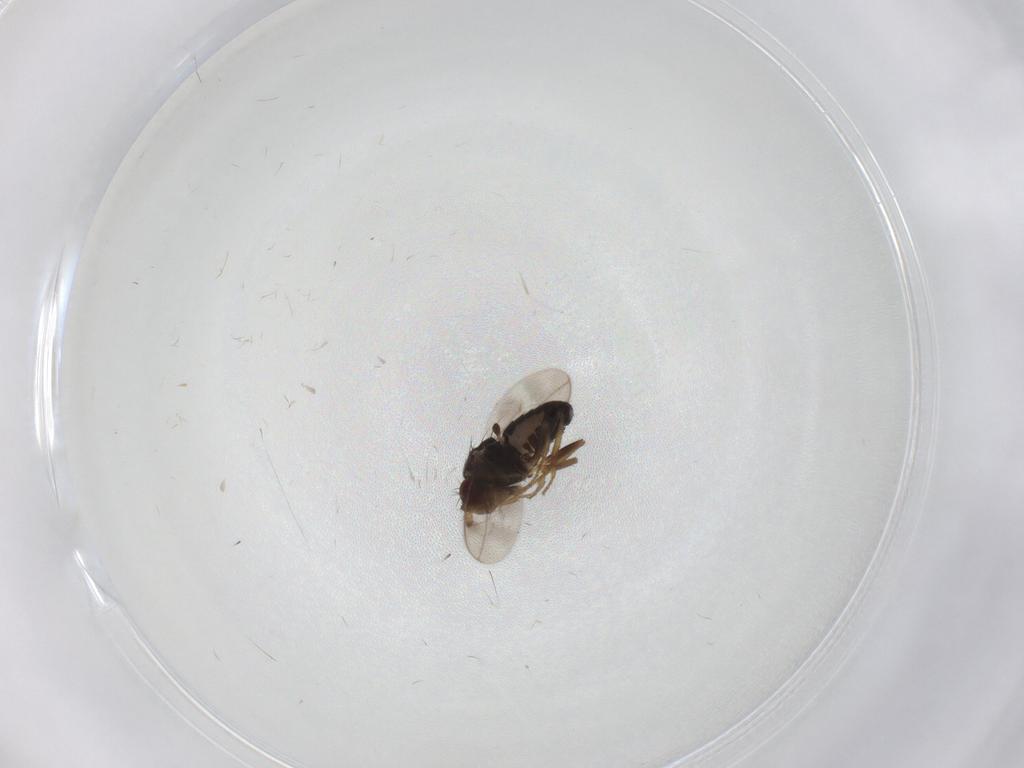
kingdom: Animalia
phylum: Arthropoda
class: Insecta
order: Diptera
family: Sphaeroceridae
